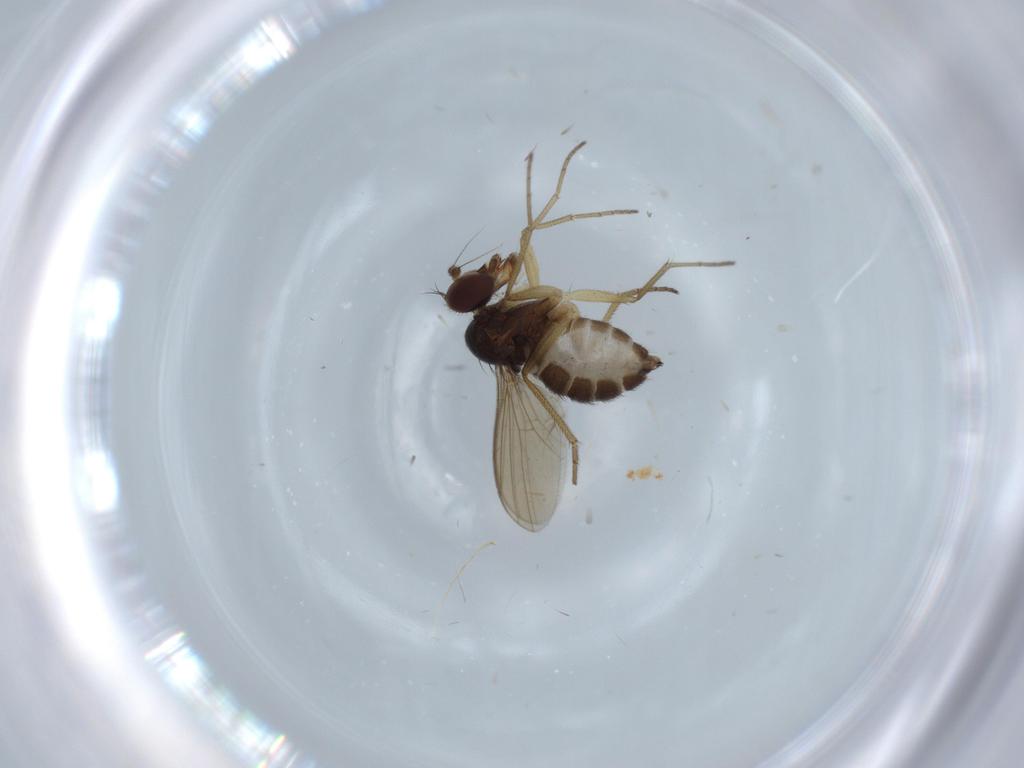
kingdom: Animalia
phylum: Arthropoda
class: Insecta
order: Diptera
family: Dolichopodidae
